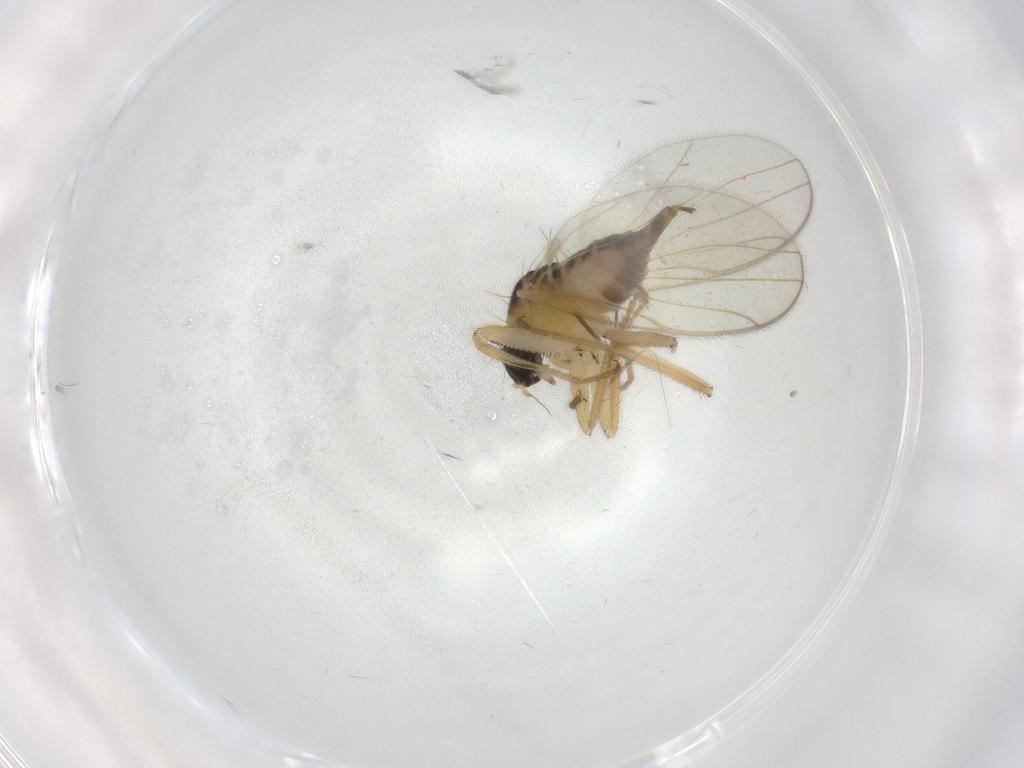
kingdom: Animalia
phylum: Arthropoda
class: Insecta
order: Diptera
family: Hybotidae
